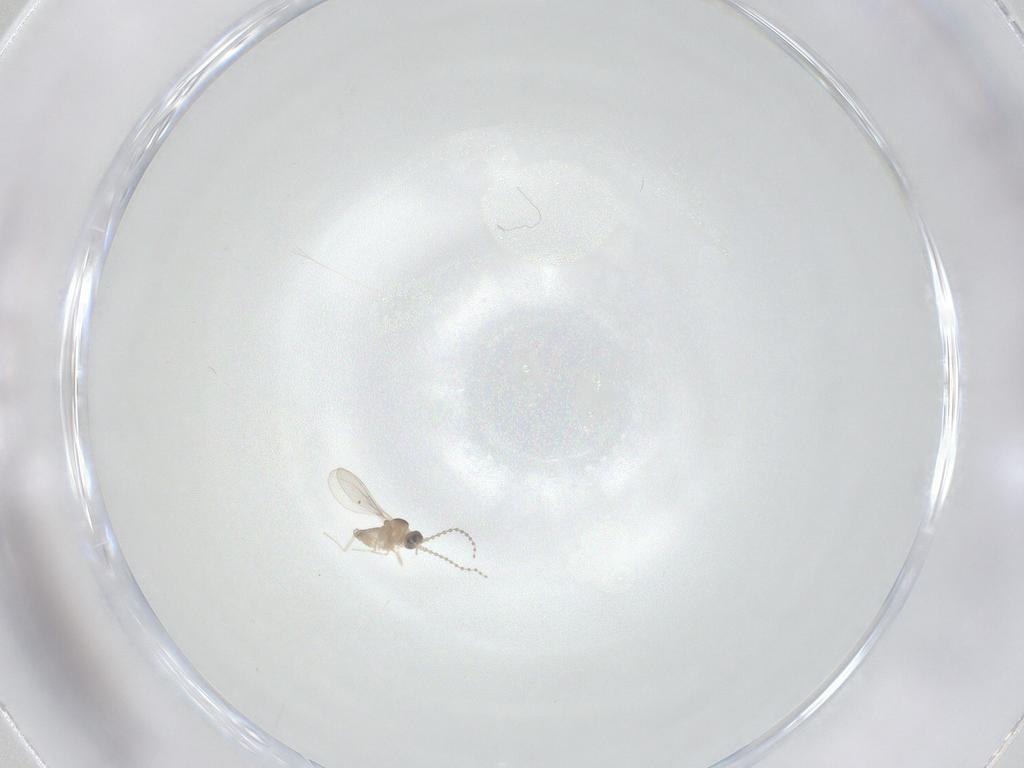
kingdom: Animalia
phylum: Arthropoda
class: Insecta
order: Diptera
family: Cecidomyiidae
